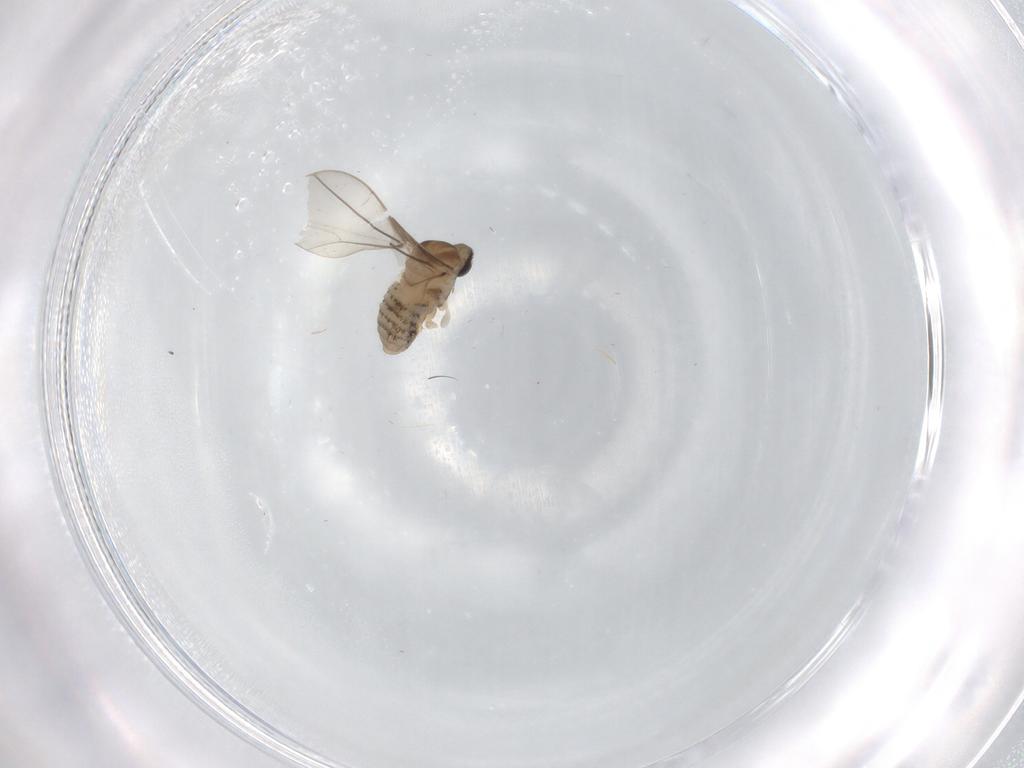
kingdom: Animalia
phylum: Arthropoda
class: Insecta
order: Diptera
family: Cecidomyiidae
